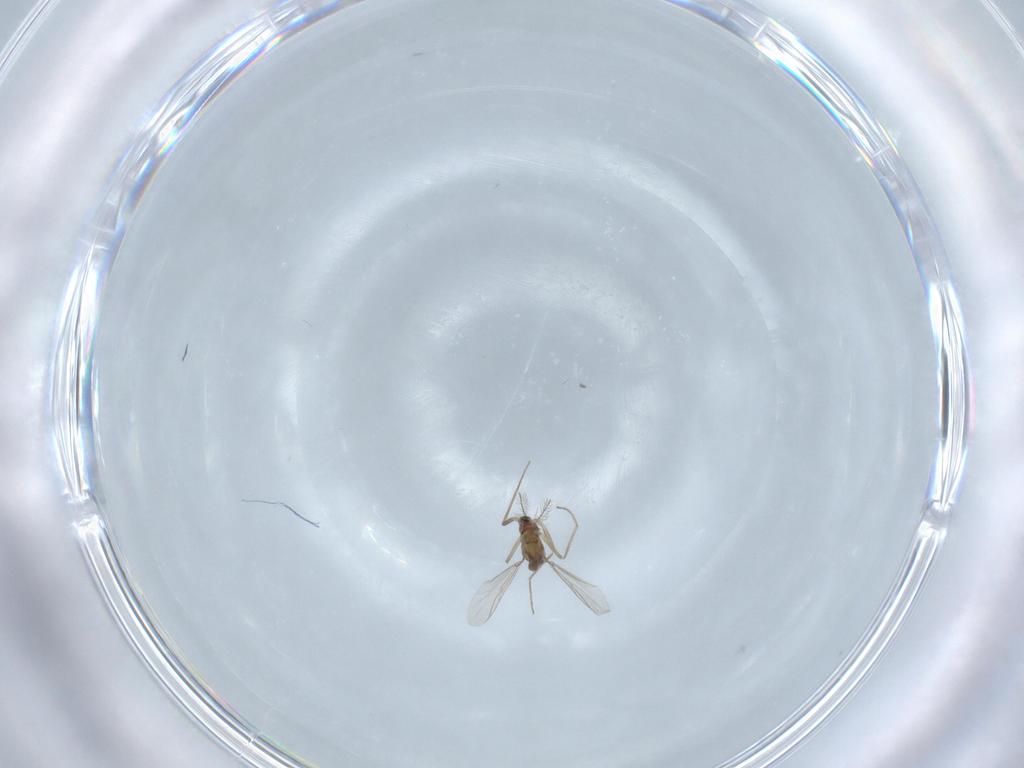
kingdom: Animalia
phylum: Arthropoda
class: Insecta
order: Diptera
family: Chironomidae
